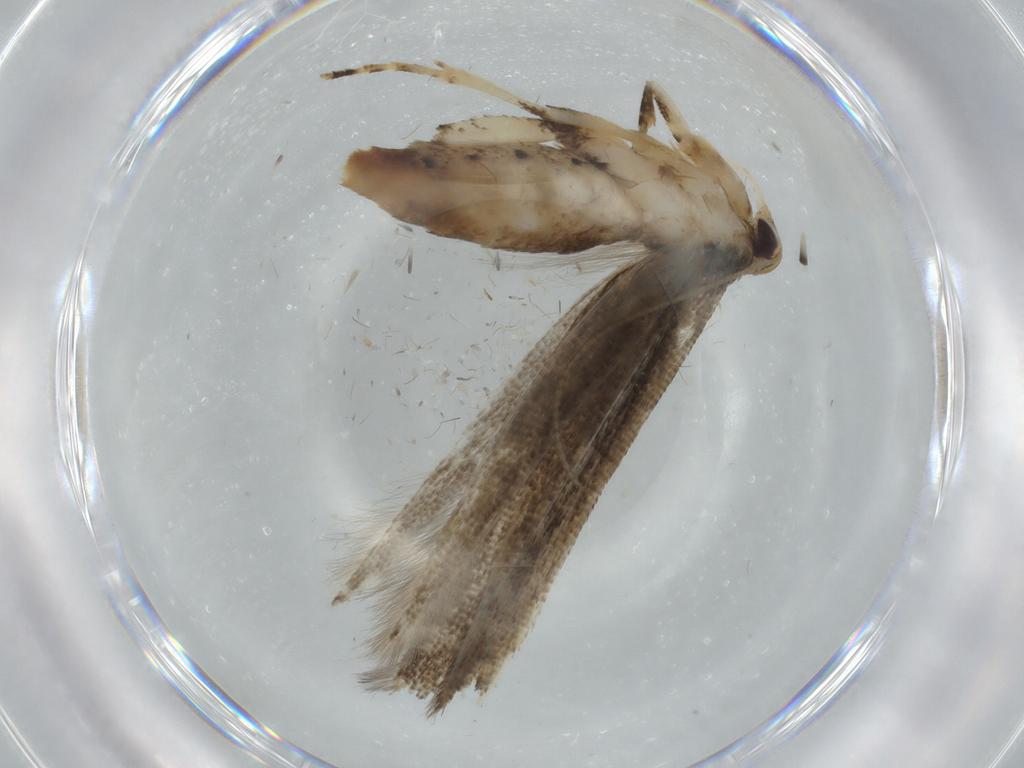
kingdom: Animalia
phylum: Arthropoda
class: Insecta
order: Lepidoptera
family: Momphidae
